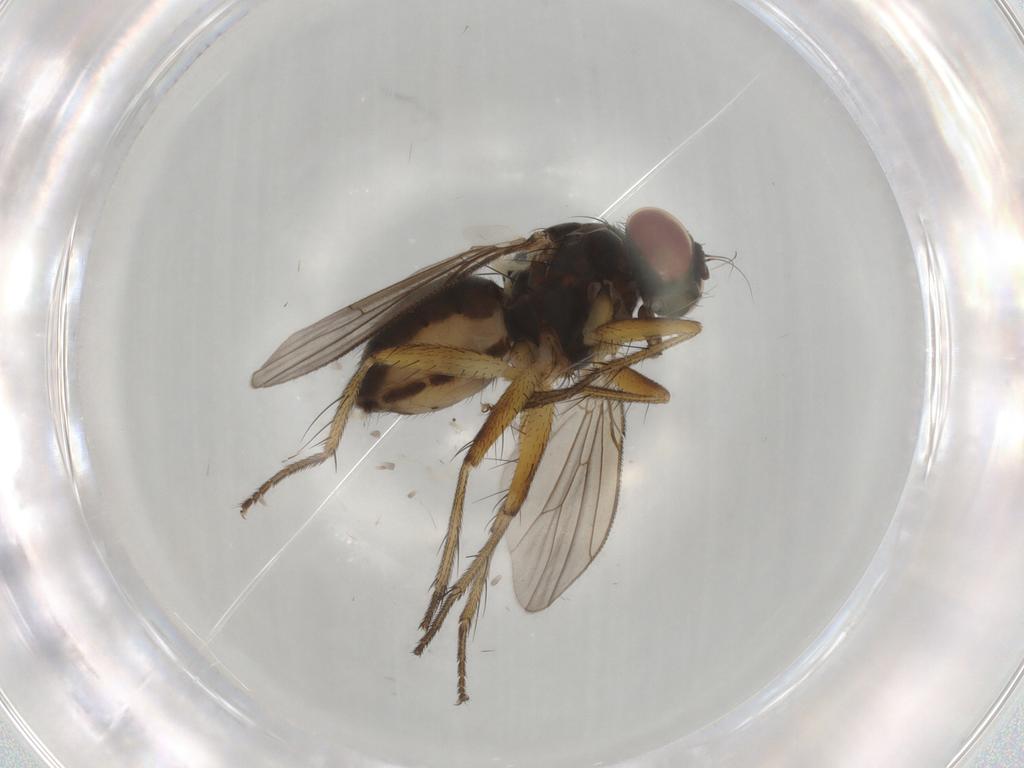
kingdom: Animalia
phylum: Arthropoda
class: Insecta
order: Diptera
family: Muscidae
